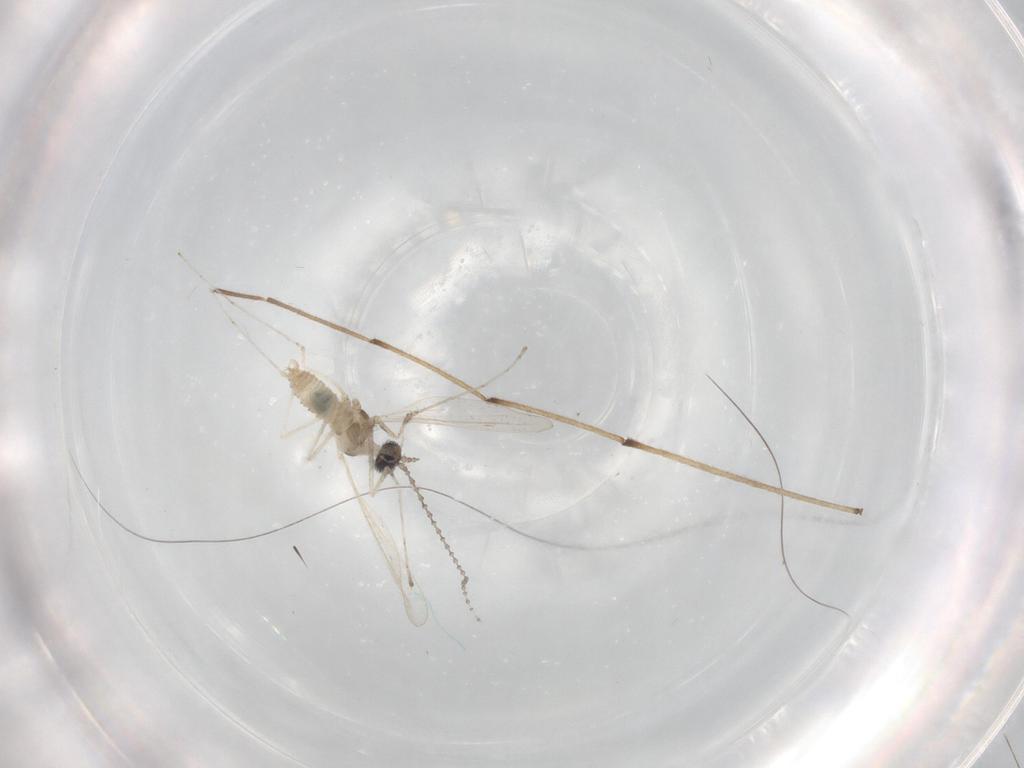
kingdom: Animalia
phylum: Arthropoda
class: Insecta
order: Diptera
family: Cecidomyiidae
